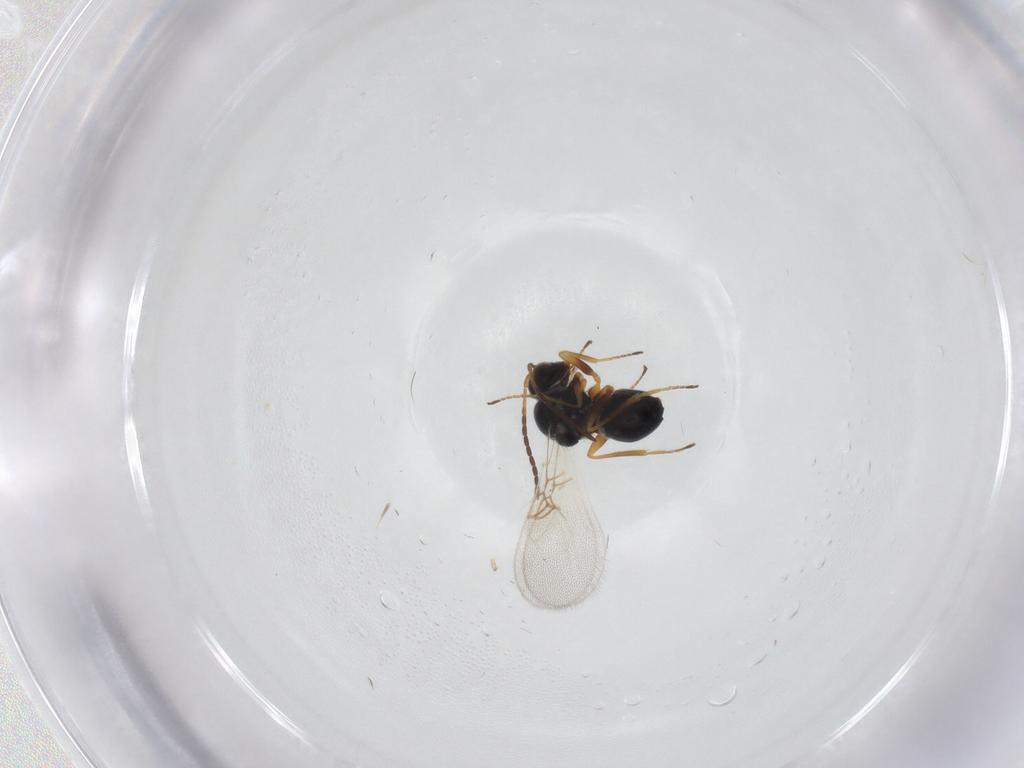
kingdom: Animalia
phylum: Arthropoda
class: Insecta
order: Hymenoptera
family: Figitidae
